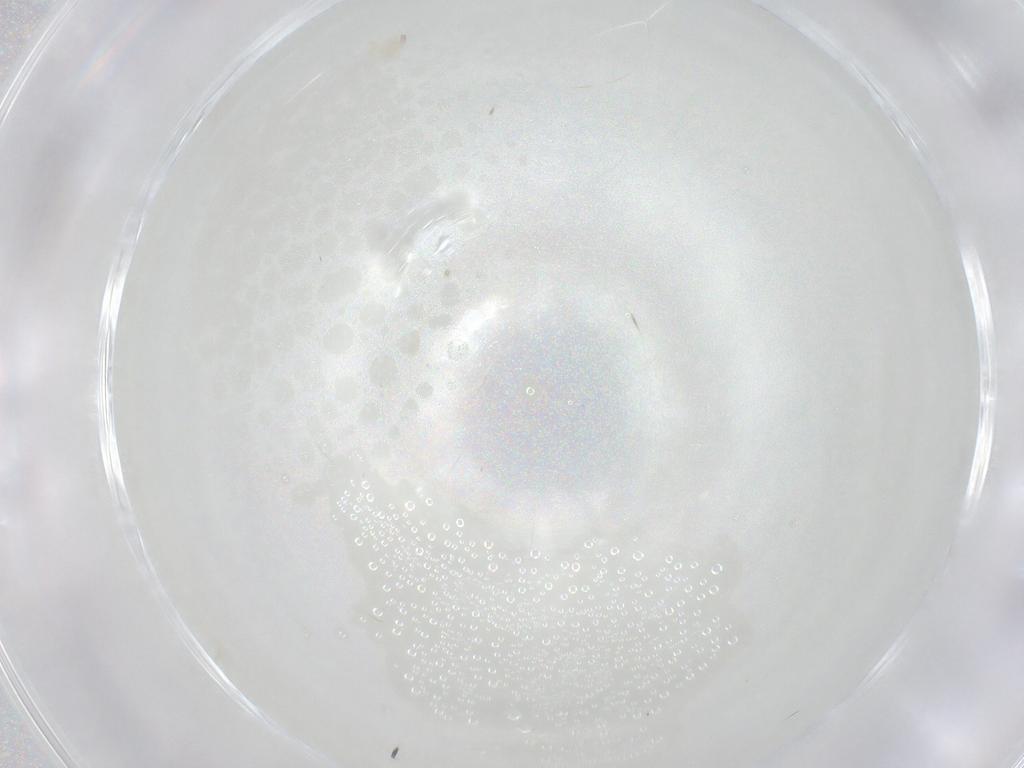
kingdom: Animalia
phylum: Arthropoda
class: Arachnida
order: Trombidiformes
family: Erythraeidae
